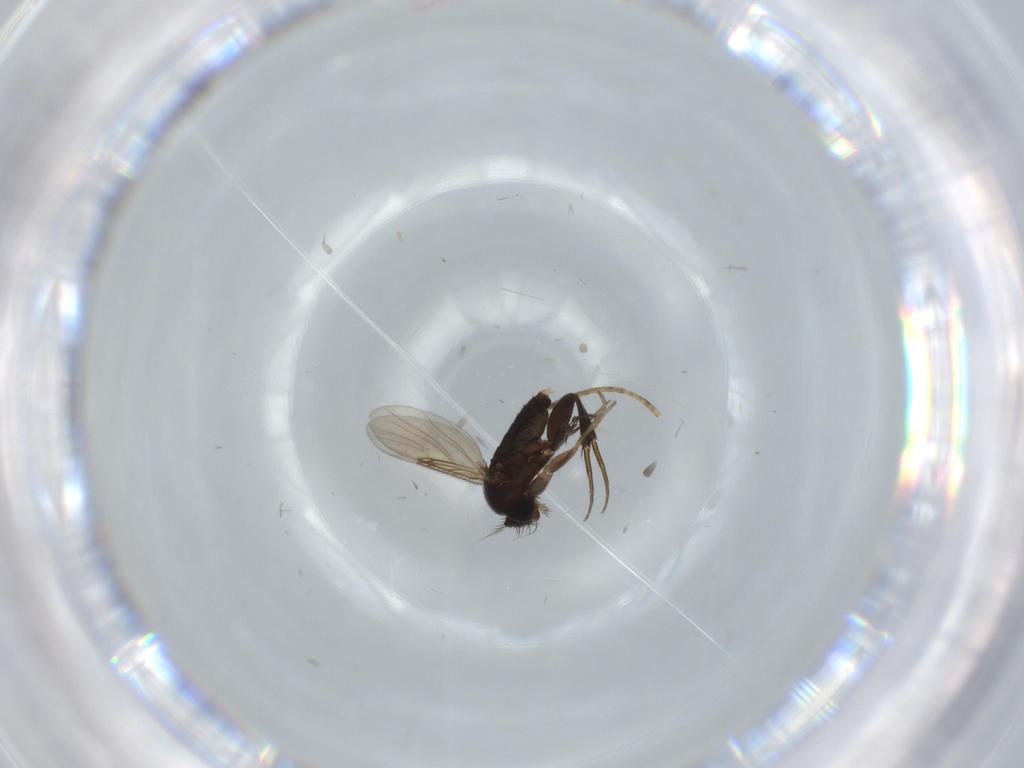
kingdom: Animalia
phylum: Arthropoda
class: Insecta
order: Diptera
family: Phoridae
